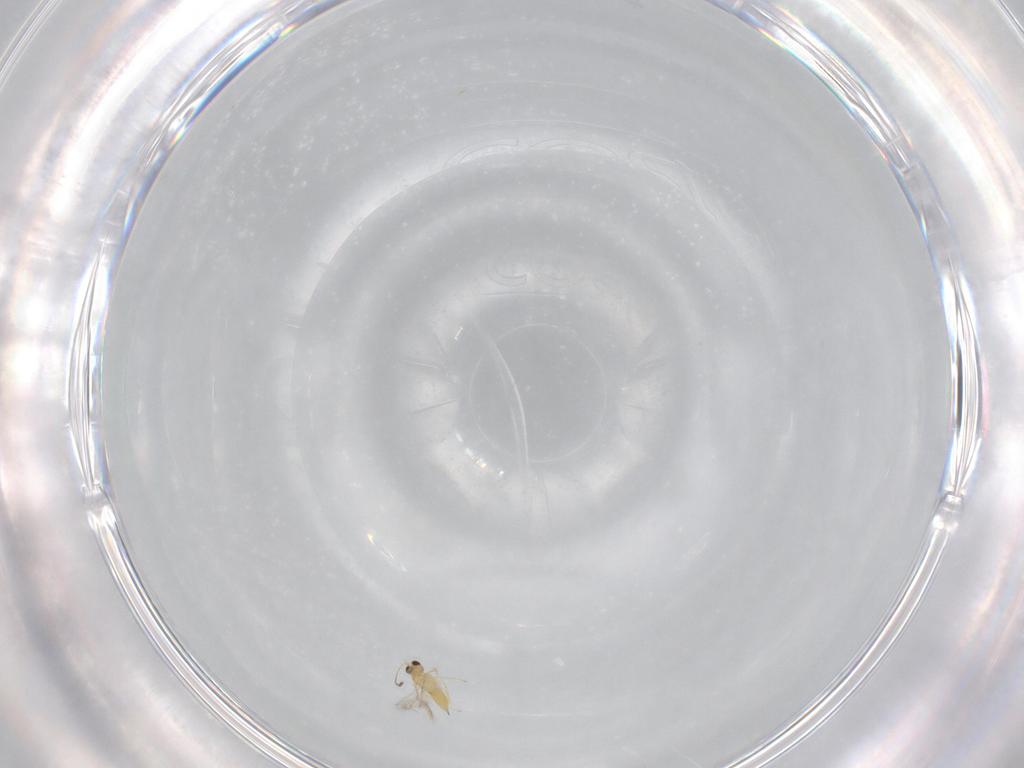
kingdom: Animalia
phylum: Arthropoda
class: Insecta
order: Hymenoptera
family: Mymaridae
